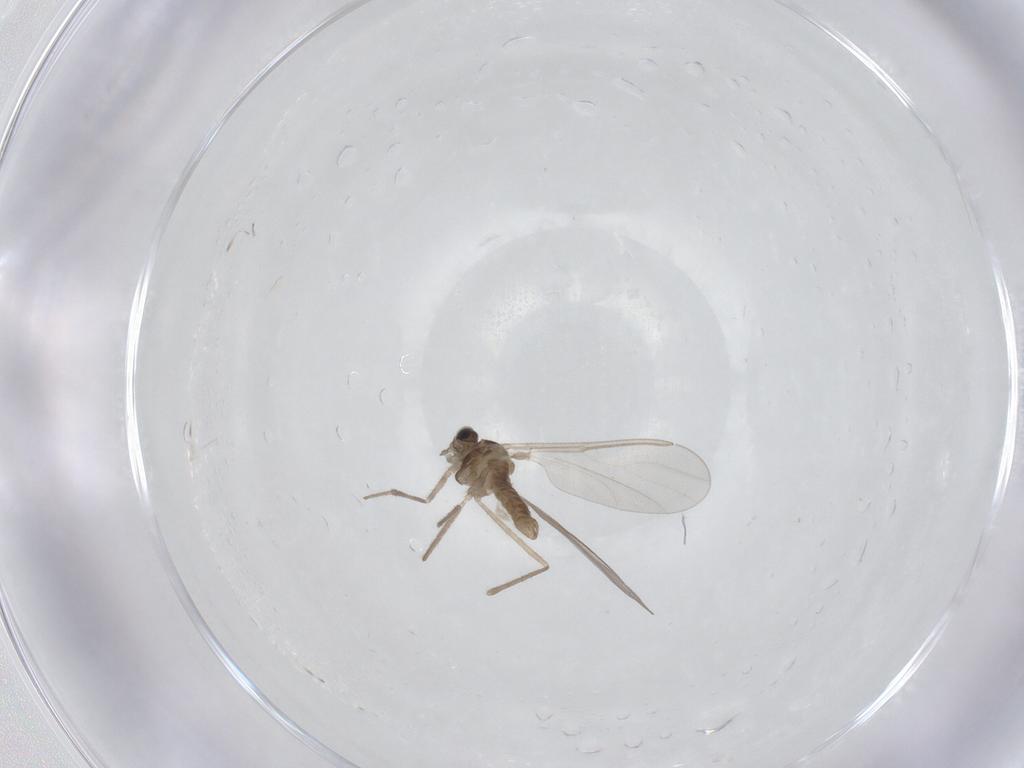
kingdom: Animalia
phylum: Arthropoda
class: Insecta
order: Diptera
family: Cecidomyiidae
